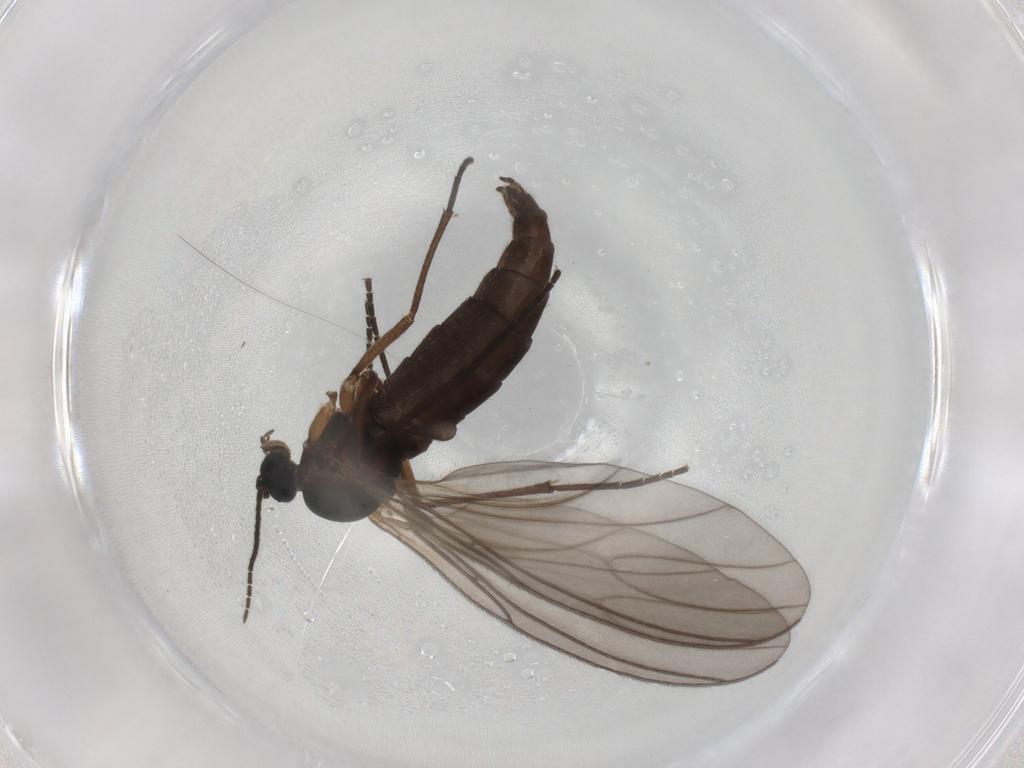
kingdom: Animalia
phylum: Arthropoda
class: Insecta
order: Diptera
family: Sciaridae
